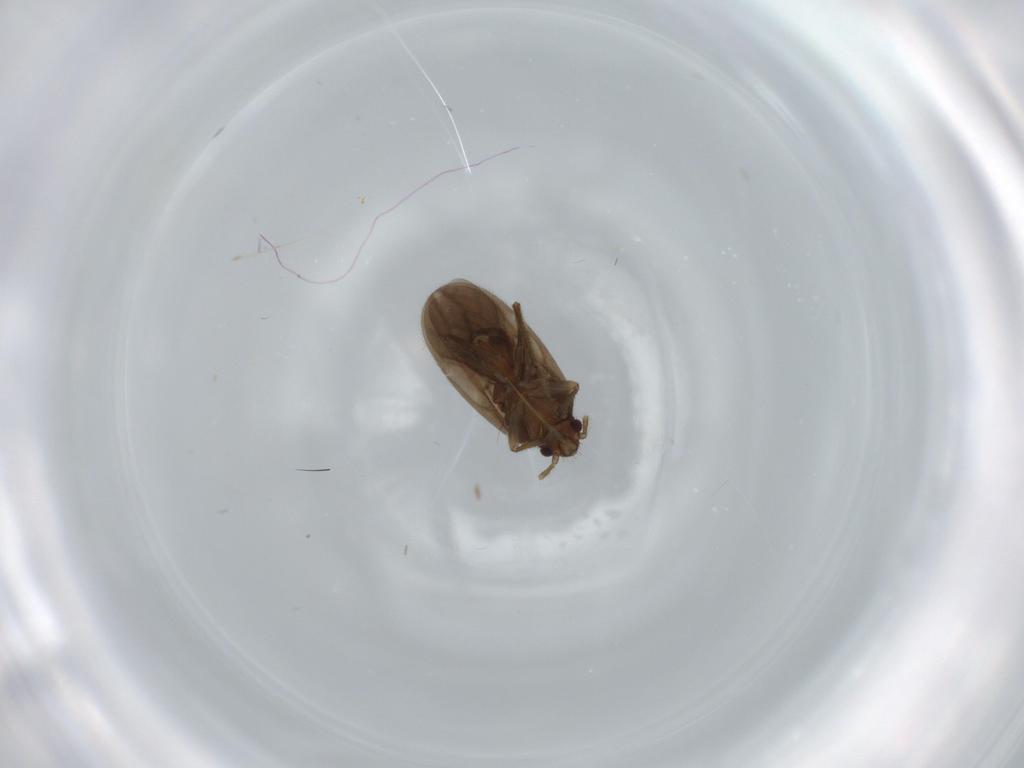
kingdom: Animalia
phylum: Arthropoda
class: Insecta
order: Hemiptera
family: Ceratocombidae
